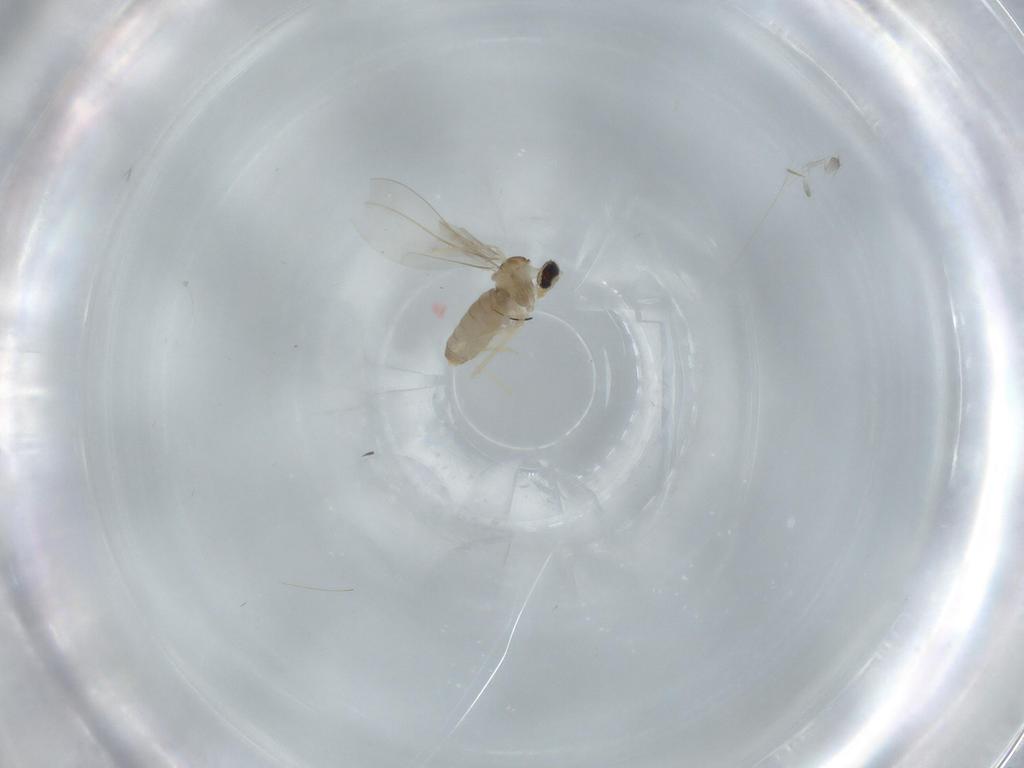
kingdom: Animalia
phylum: Arthropoda
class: Insecta
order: Diptera
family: Cecidomyiidae
